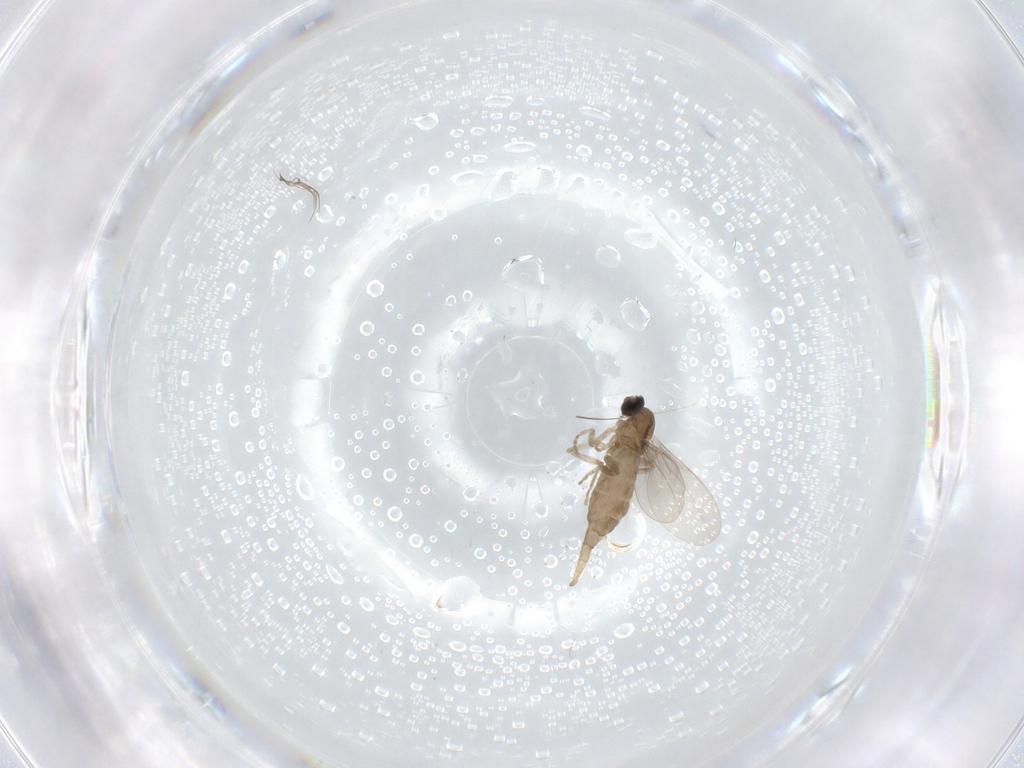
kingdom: Animalia
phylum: Arthropoda
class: Insecta
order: Diptera
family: Cecidomyiidae
